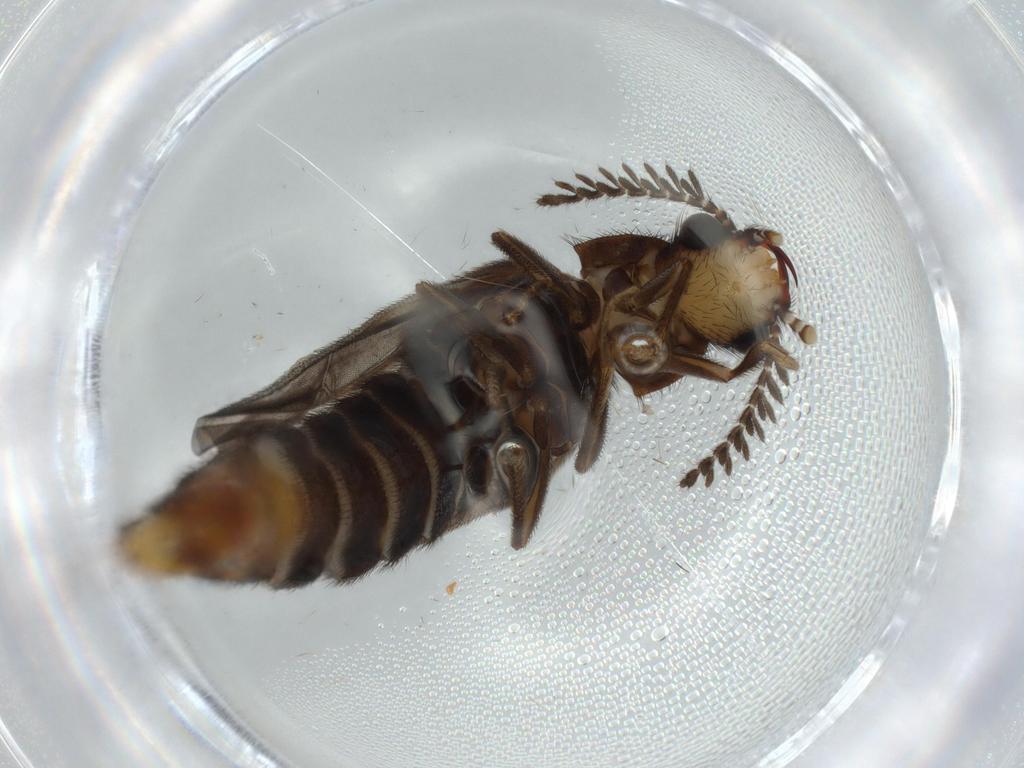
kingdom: Animalia
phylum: Arthropoda
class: Insecta
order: Coleoptera
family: Phengodidae
